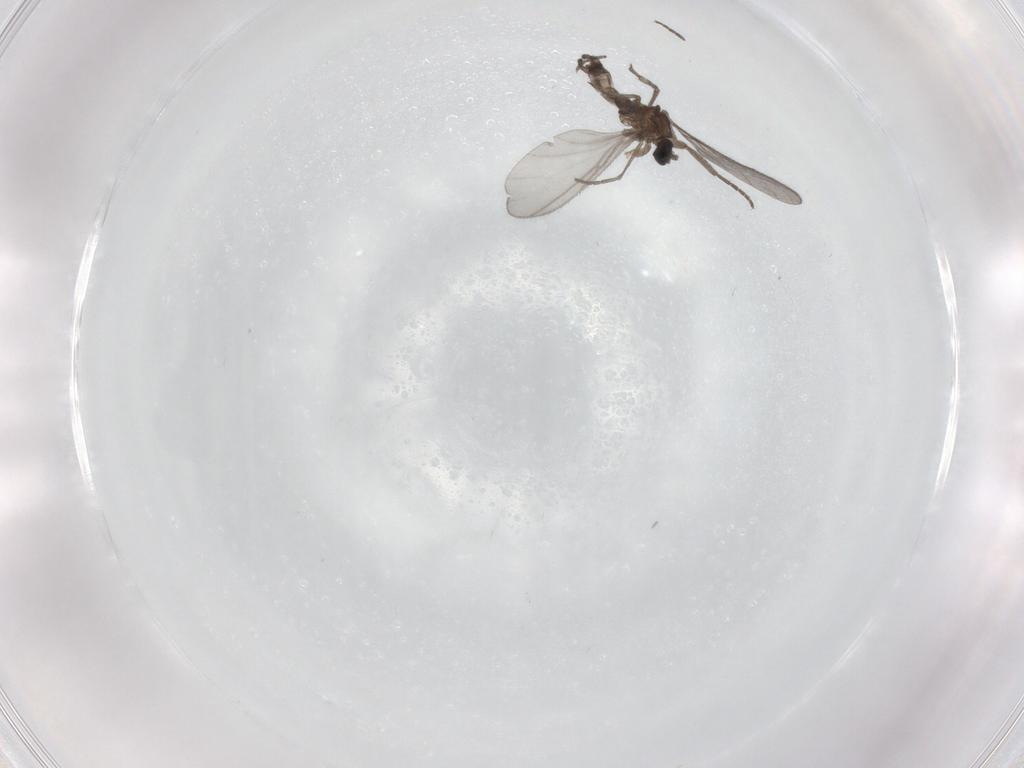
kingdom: Animalia
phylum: Arthropoda
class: Insecta
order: Diptera
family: Sciaridae
